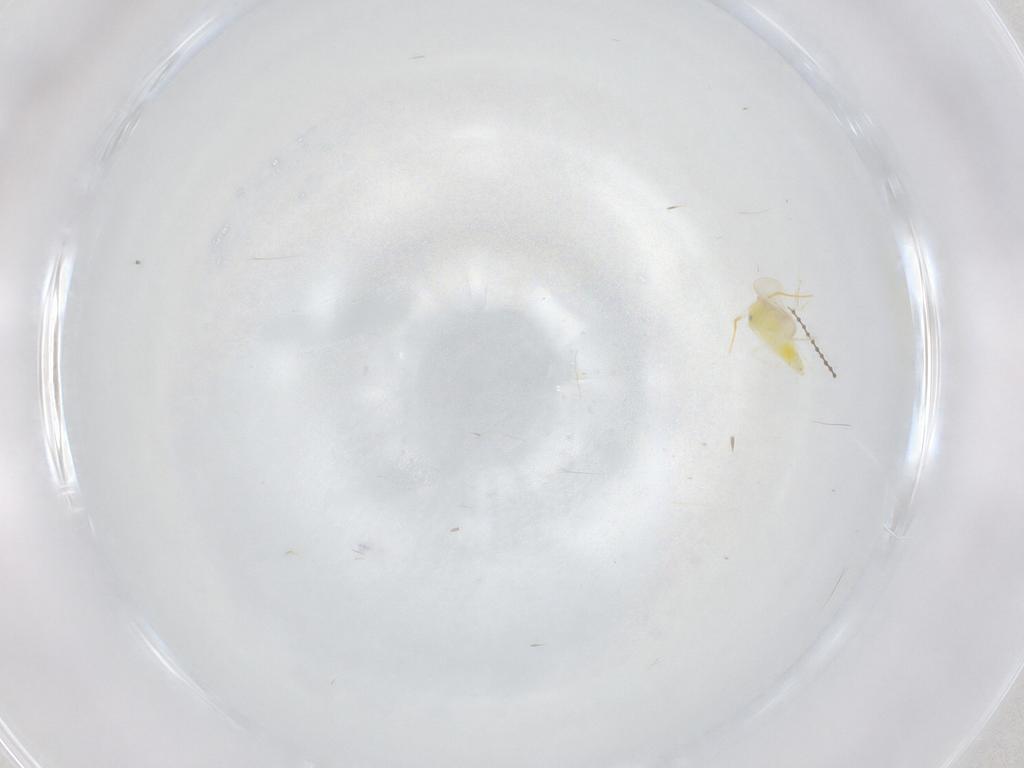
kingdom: Animalia
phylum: Arthropoda
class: Insecta
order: Hemiptera
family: Aleyrodidae
